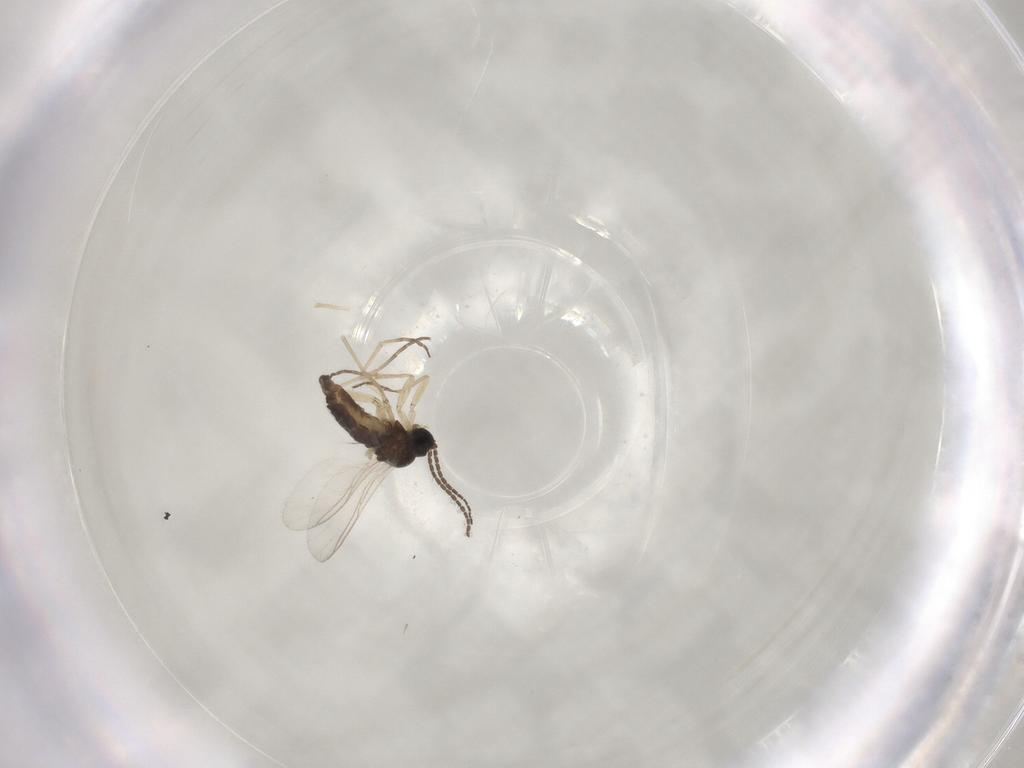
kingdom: Animalia
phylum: Arthropoda
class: Insecta
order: Diptera
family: Sciaridae
